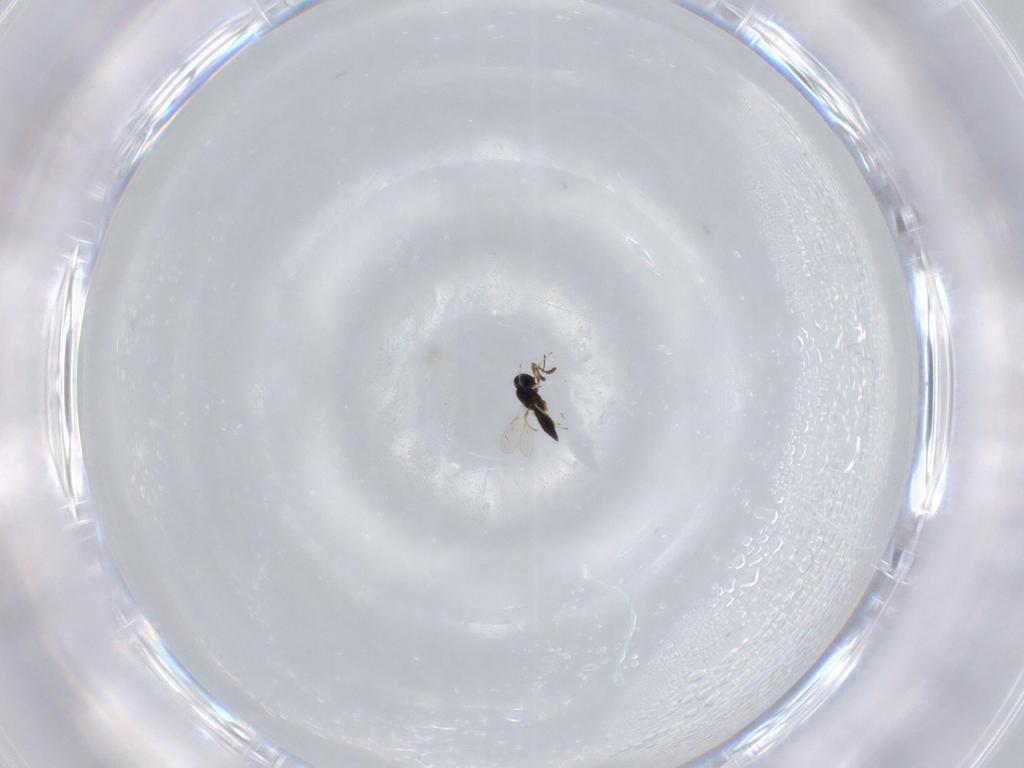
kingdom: Animalia
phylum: Arthropoda
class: Insecta
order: Hymenoptera
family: Scelionidae
